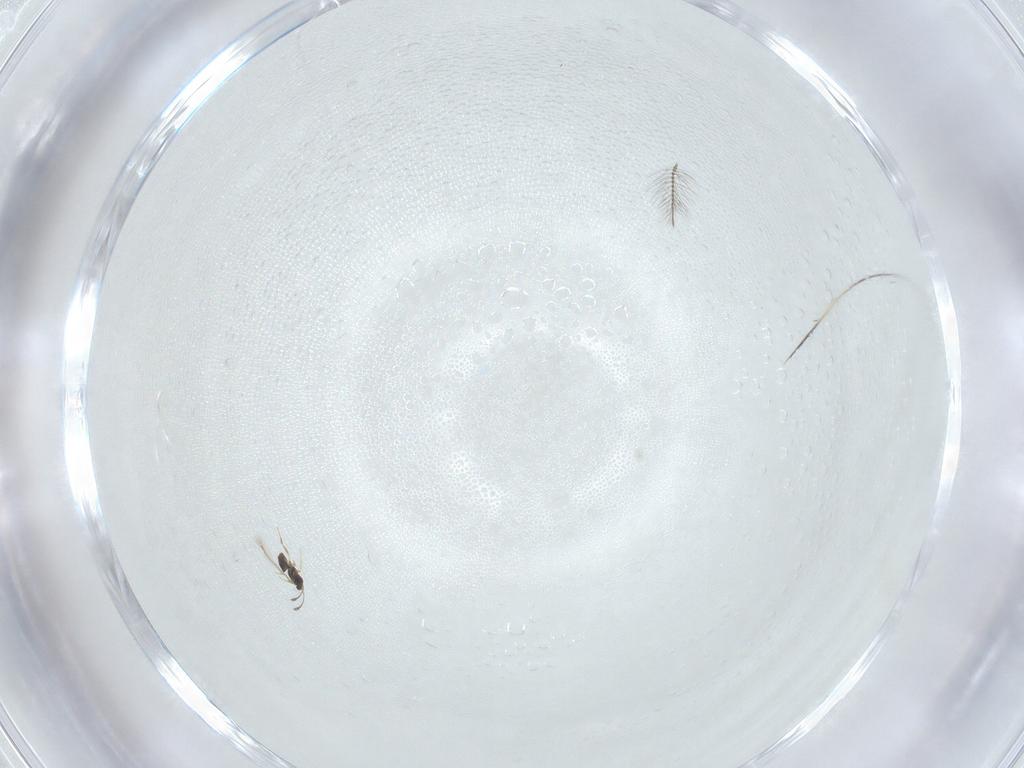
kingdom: Animalia
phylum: Arthropoda
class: Insecta
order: Hymenoptera
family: Mymaridae
